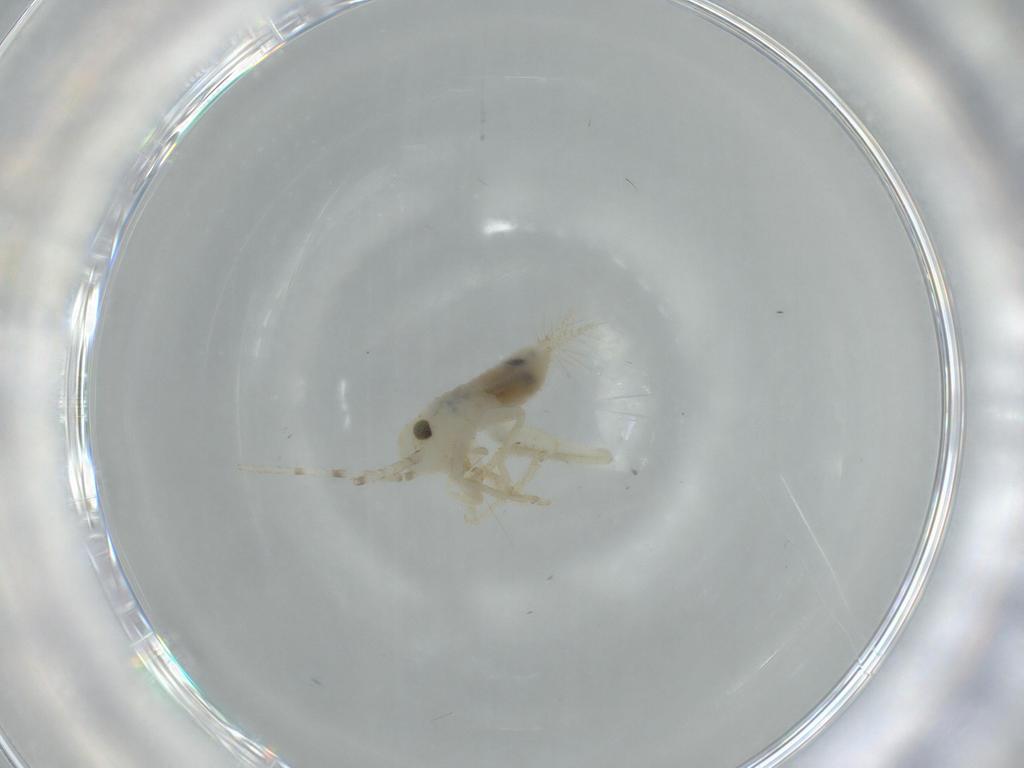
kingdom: Animalia
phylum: Arthropoda
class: Insecta
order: Orthoptera
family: Trigonidiidae
